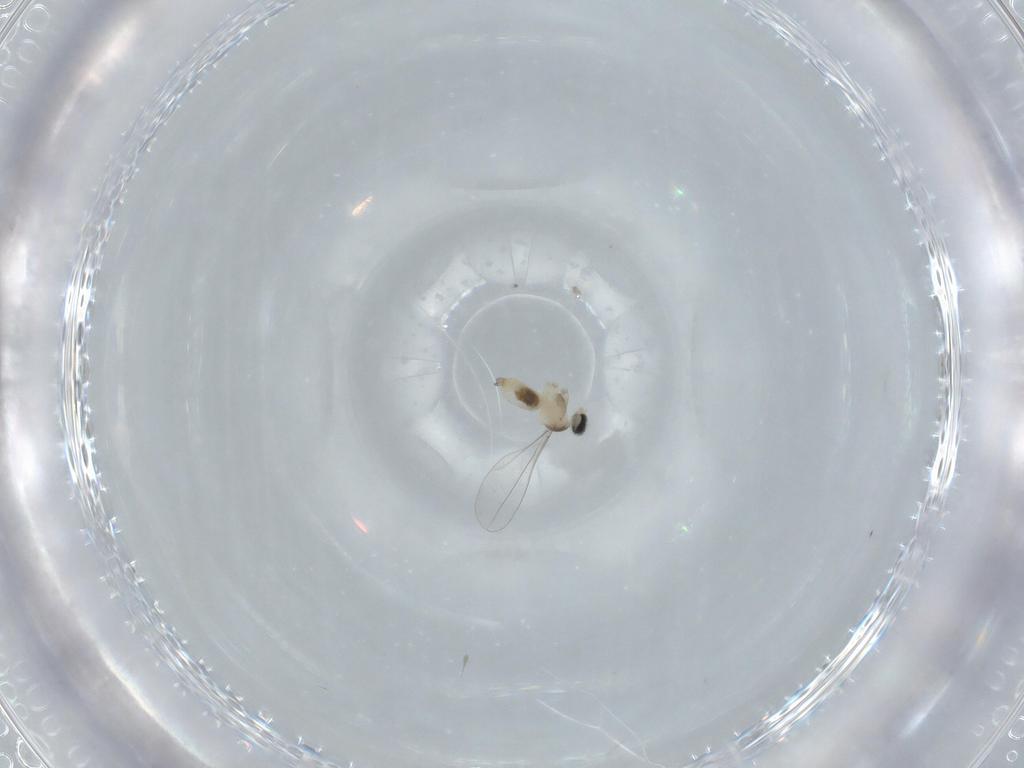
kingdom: Animalia
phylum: Arthropoda
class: Insecta
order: Diptera
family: Cecidomyiidae
